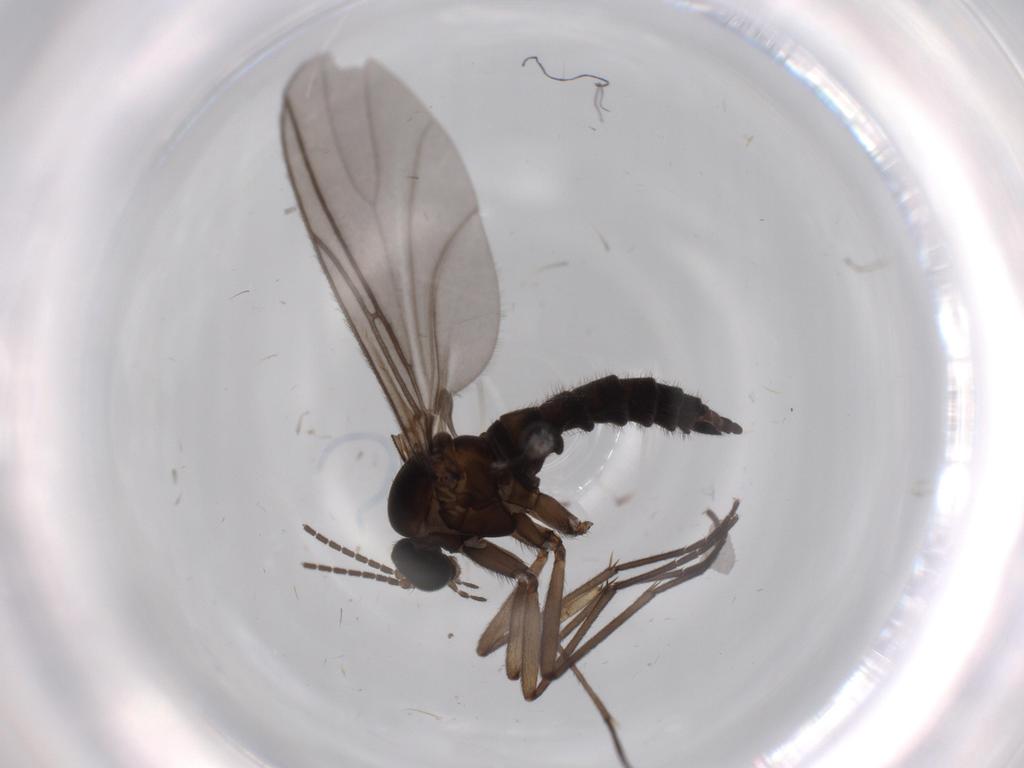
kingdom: Animalia
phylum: Arthropoda
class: Insecta
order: Diptera
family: Sciaridae
